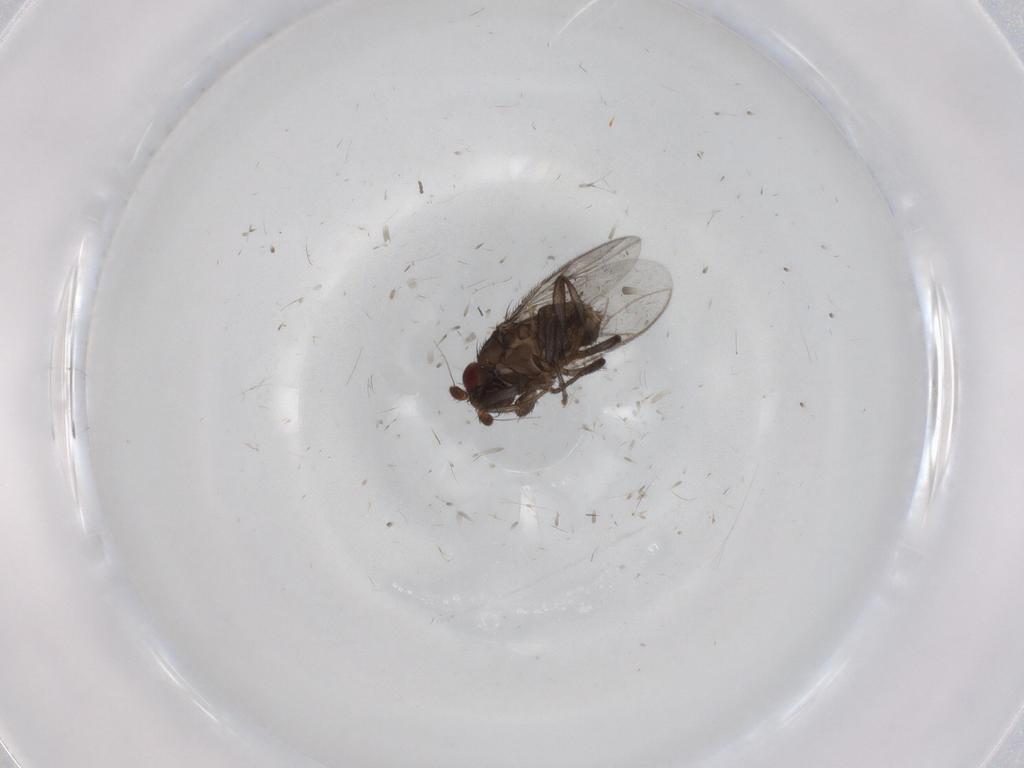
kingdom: Animalia
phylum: Arthropoda
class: Insecta
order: Diptera
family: Sphaeroceridae
